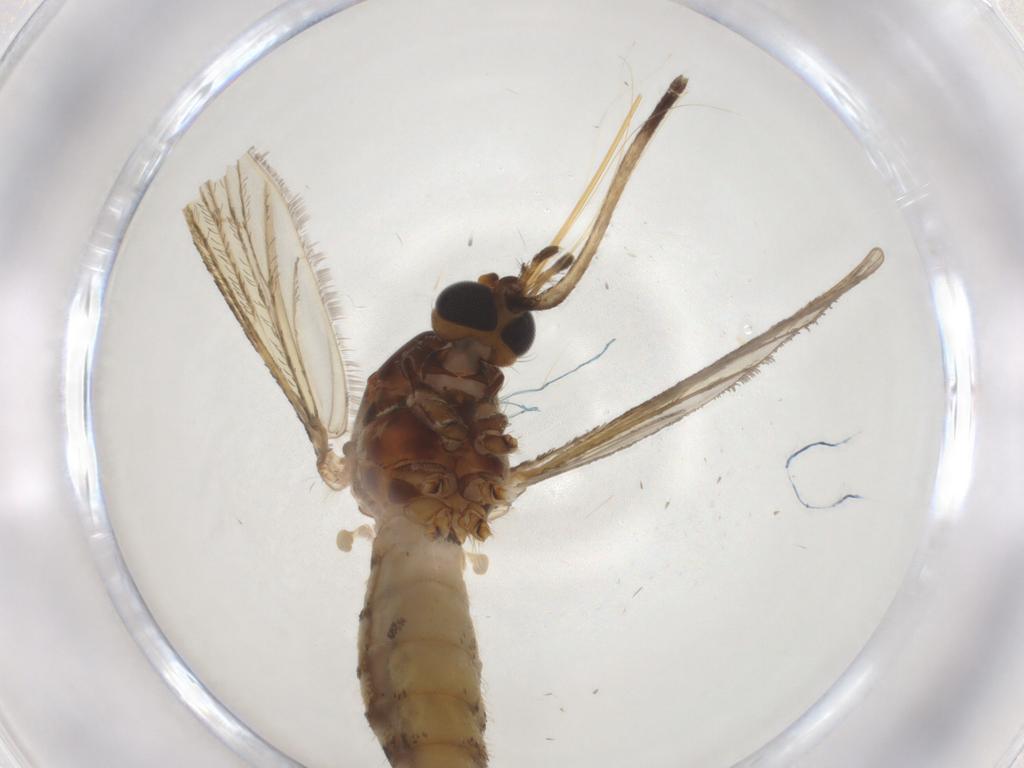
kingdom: Animalia
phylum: Arthropoda
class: Insecta
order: Diptera
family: Culicidae
